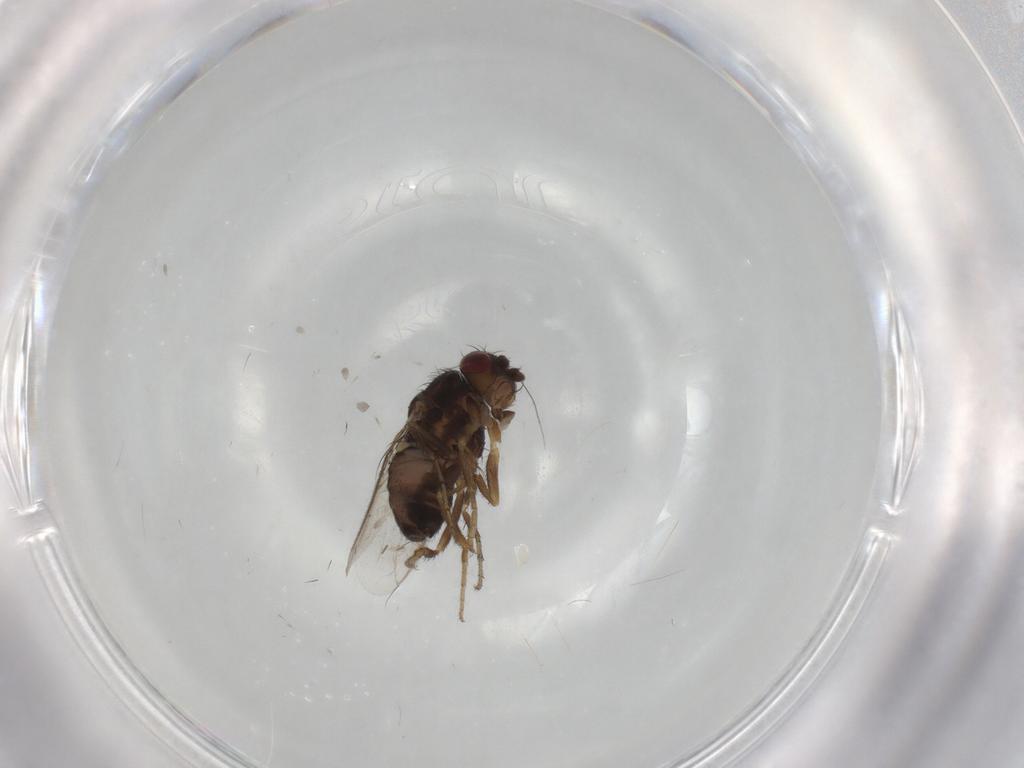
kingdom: Animalia
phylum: Arthropoda
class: Insecta
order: Diptera
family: Sphaeroceridae
